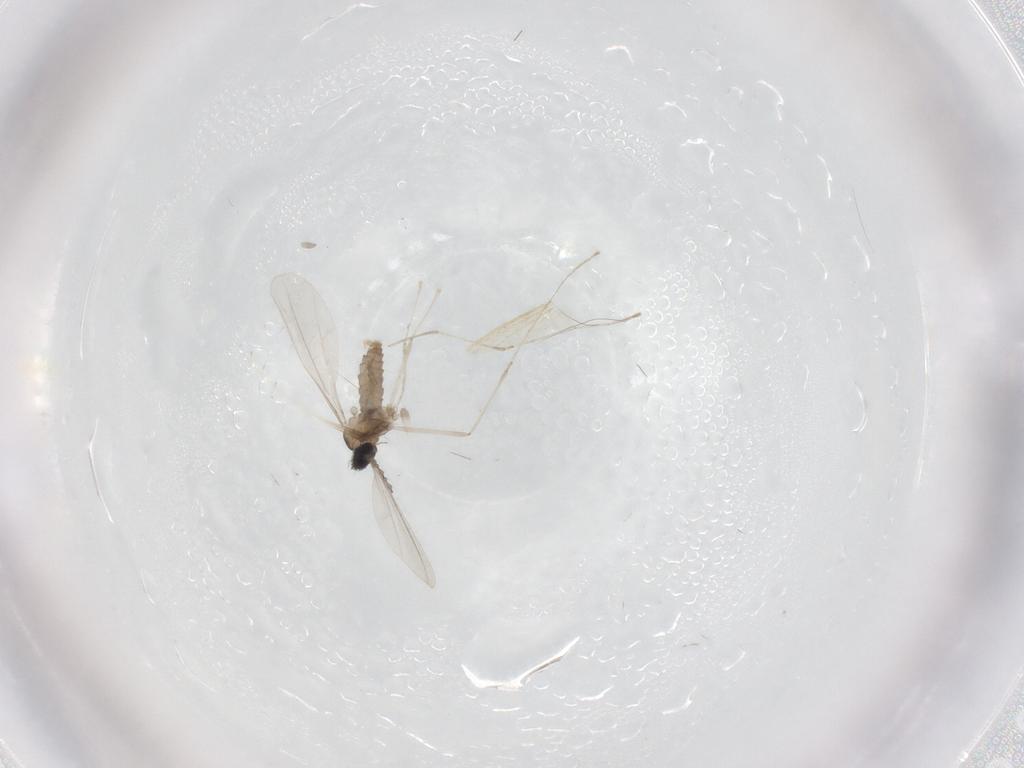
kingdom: Animalia
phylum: Arthropoda
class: Insecta
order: Diptera
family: Cecidomyiidae
